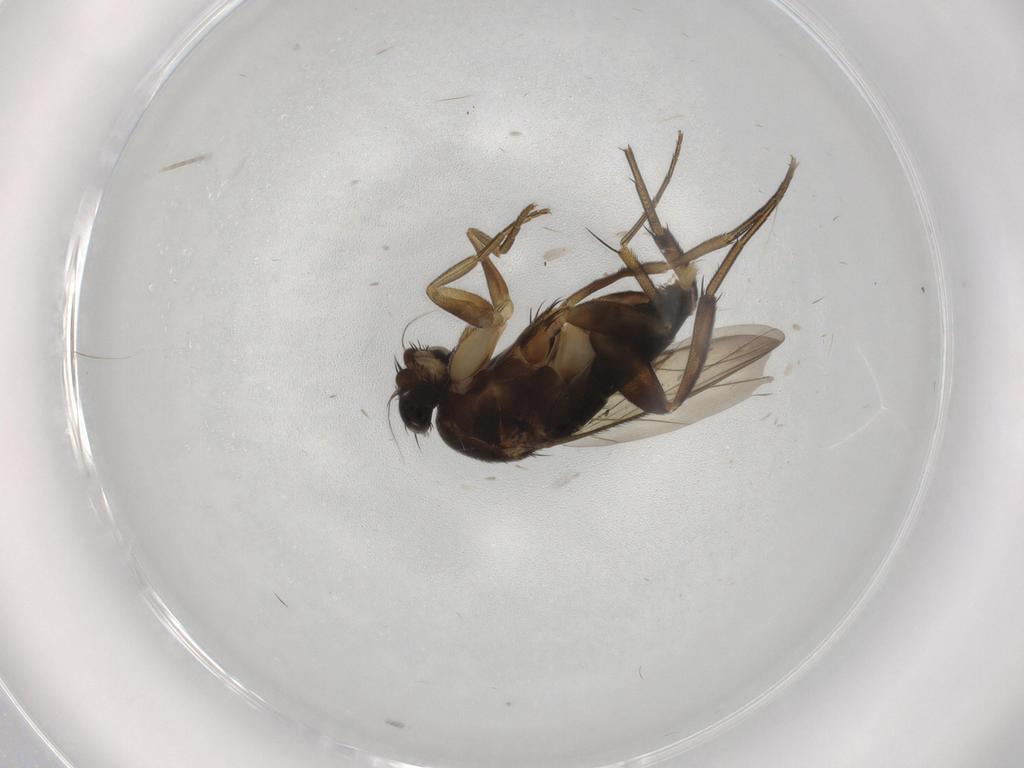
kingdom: Animalia
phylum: Arthropoda
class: Insecta
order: Diptera
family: Phoridae
